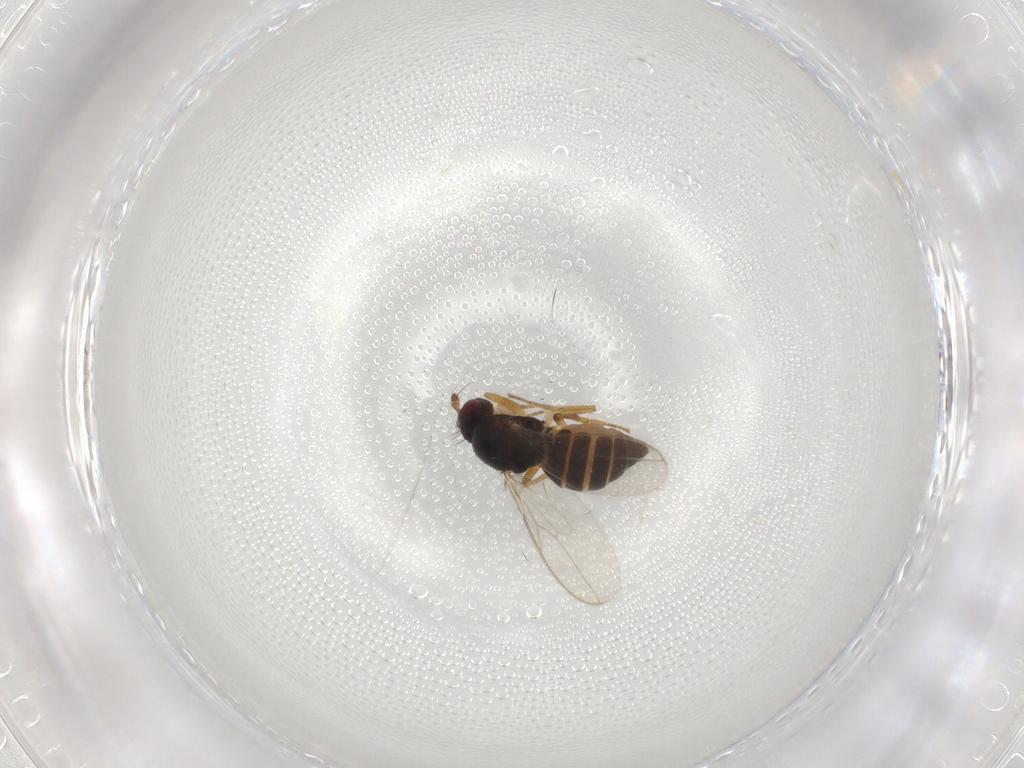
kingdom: Animalia
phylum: Arthropoda
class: Insecta
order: Diptera
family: Sphaeroceridae
